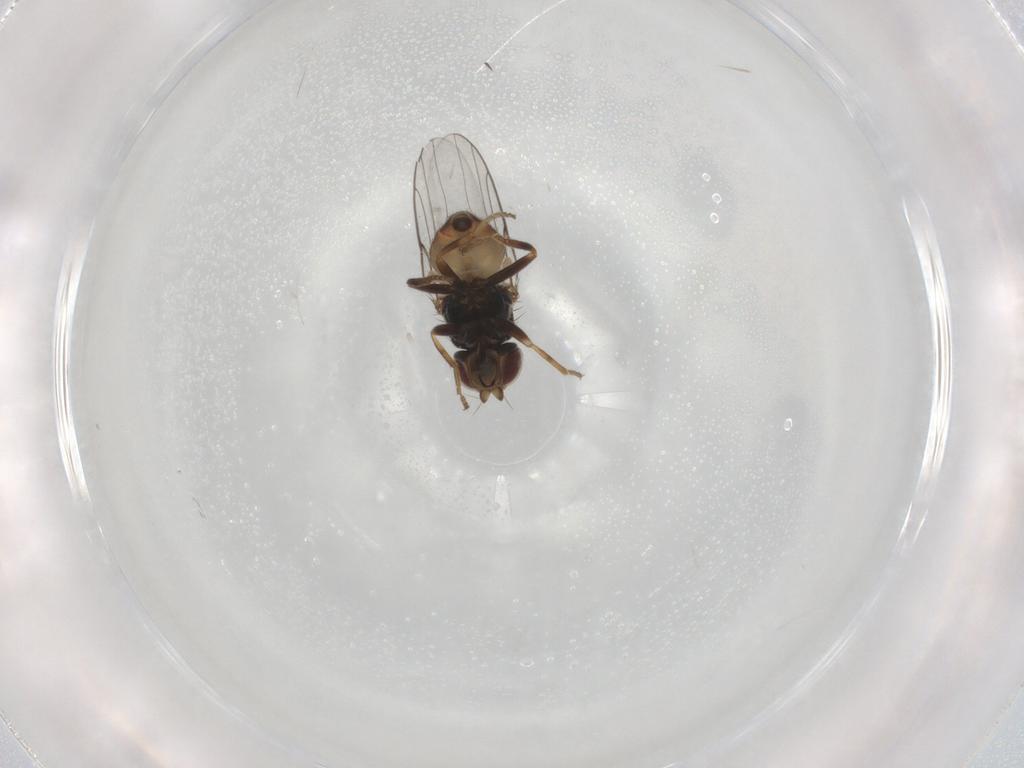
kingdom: Animalia
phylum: Arthropoda
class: Insecta
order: Diptera
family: Chloropidae
